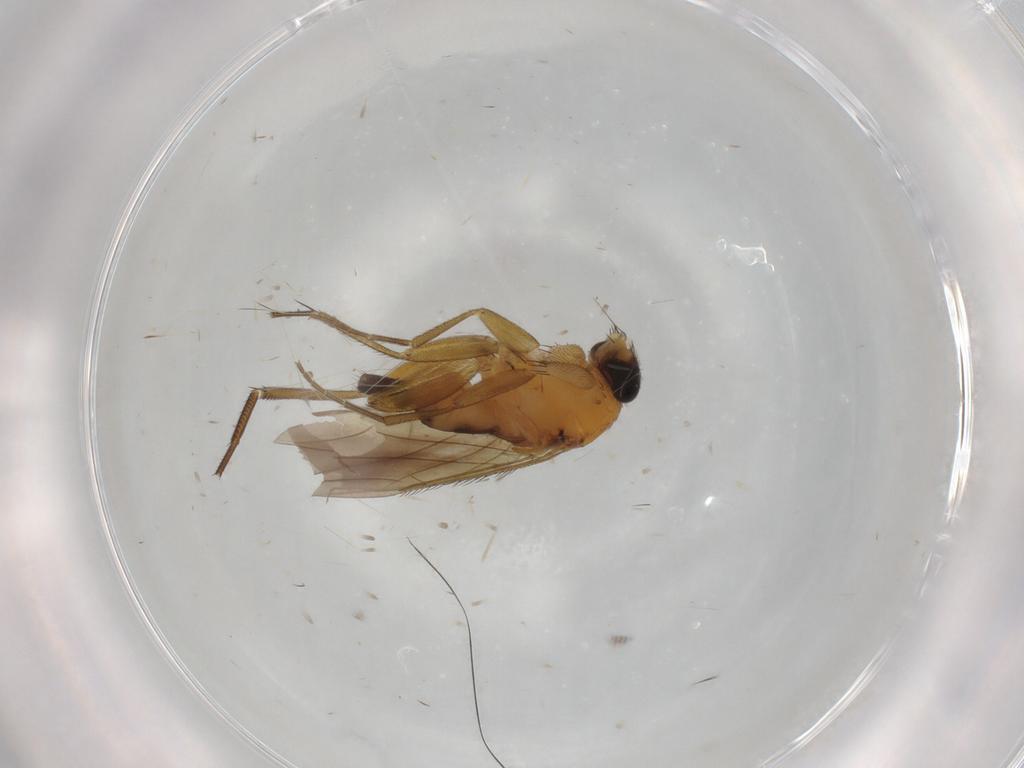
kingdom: Animalia
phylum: Arthropoda
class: Insecta
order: Diptera
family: Phoridae
